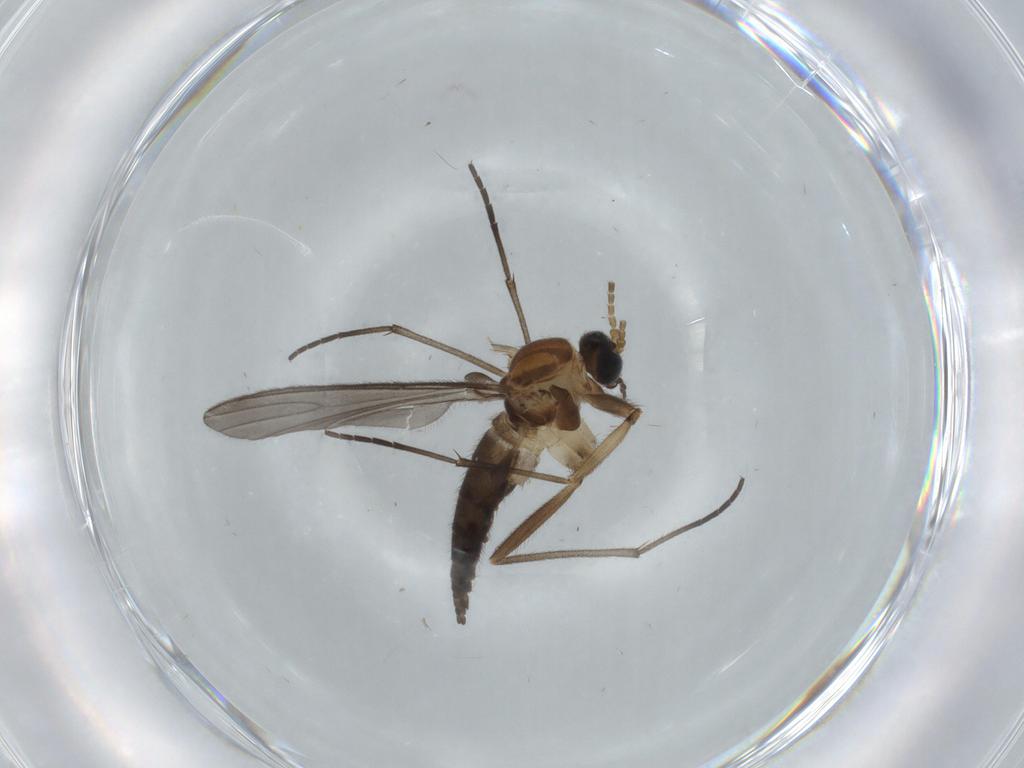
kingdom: Animalia
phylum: Arthropoda
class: Insecta
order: Diptera
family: Sciaridae
